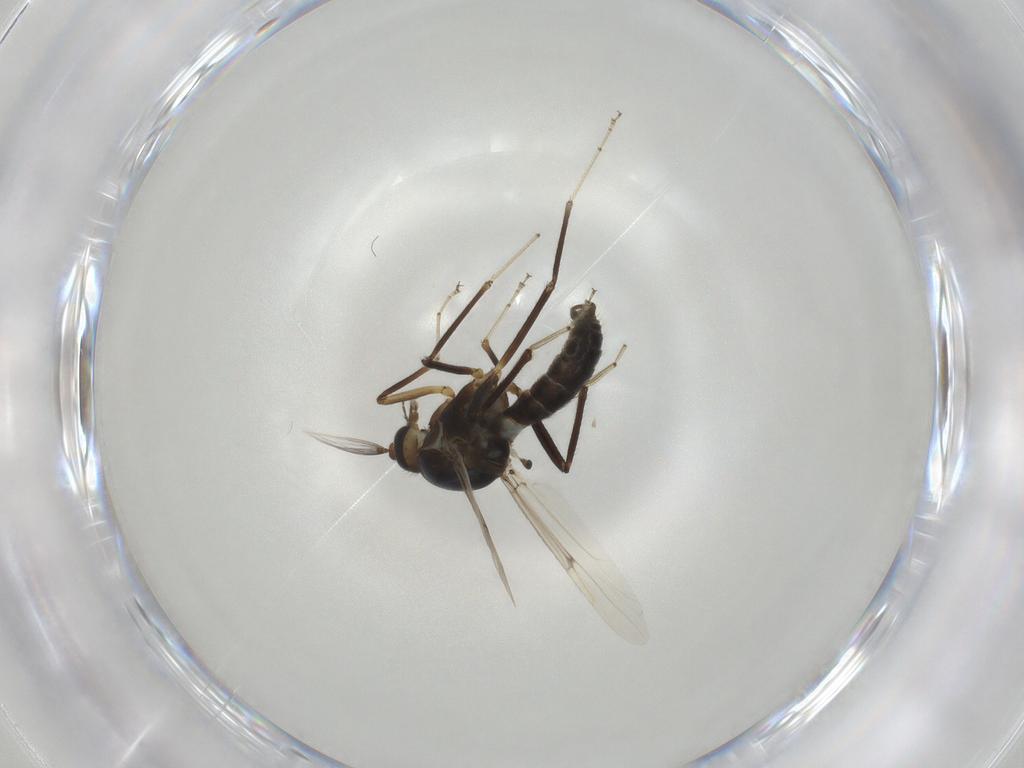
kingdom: Animalia
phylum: Arthropoda
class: Insecta
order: Diptera
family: Ceratopogonidae
